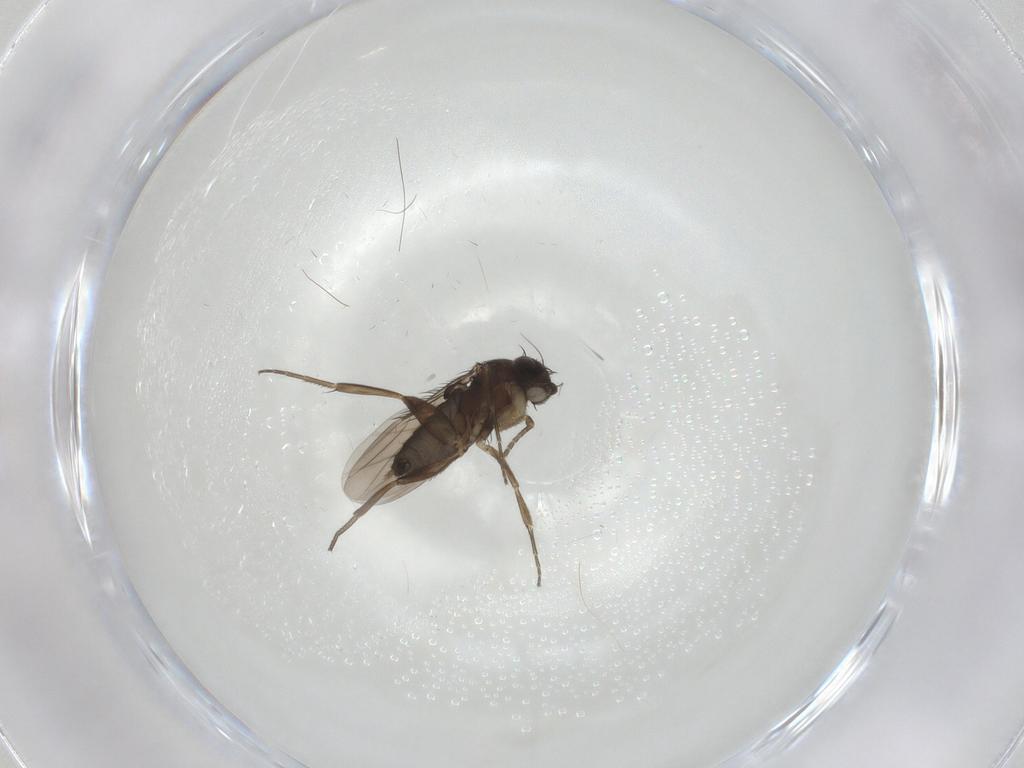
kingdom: Animalia
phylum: Arthropoda
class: Insecta
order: Diptera
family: Phoridae
